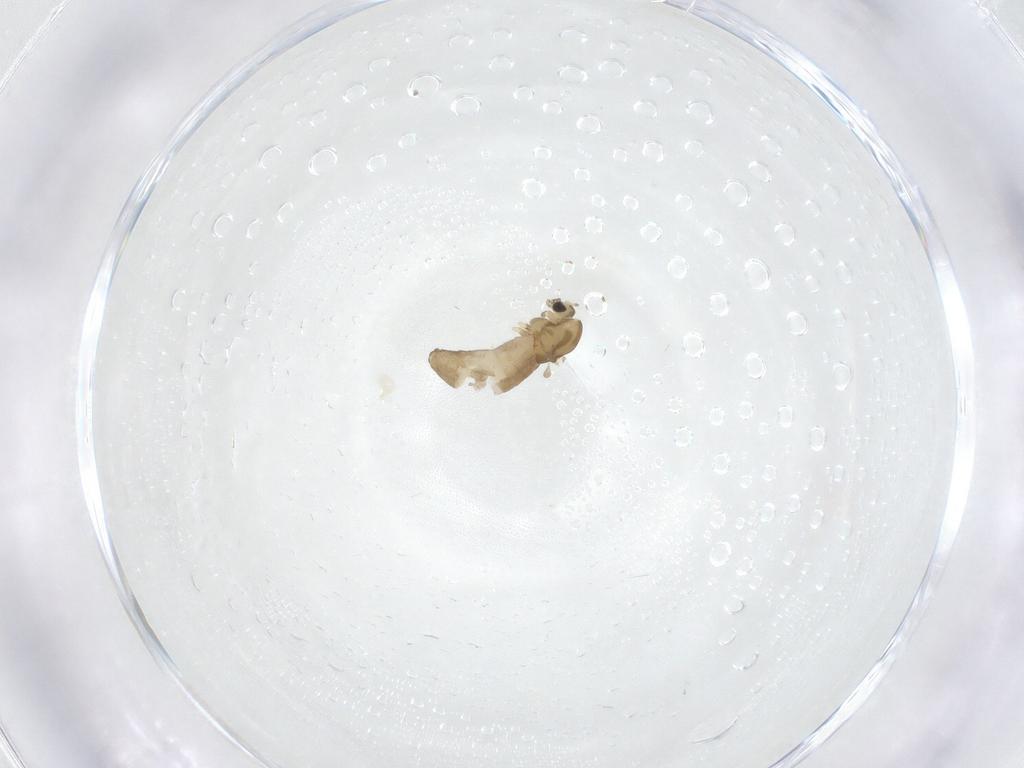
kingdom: Animalia
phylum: Arthropoda
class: Insecta
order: Diptera
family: Chironomidae
